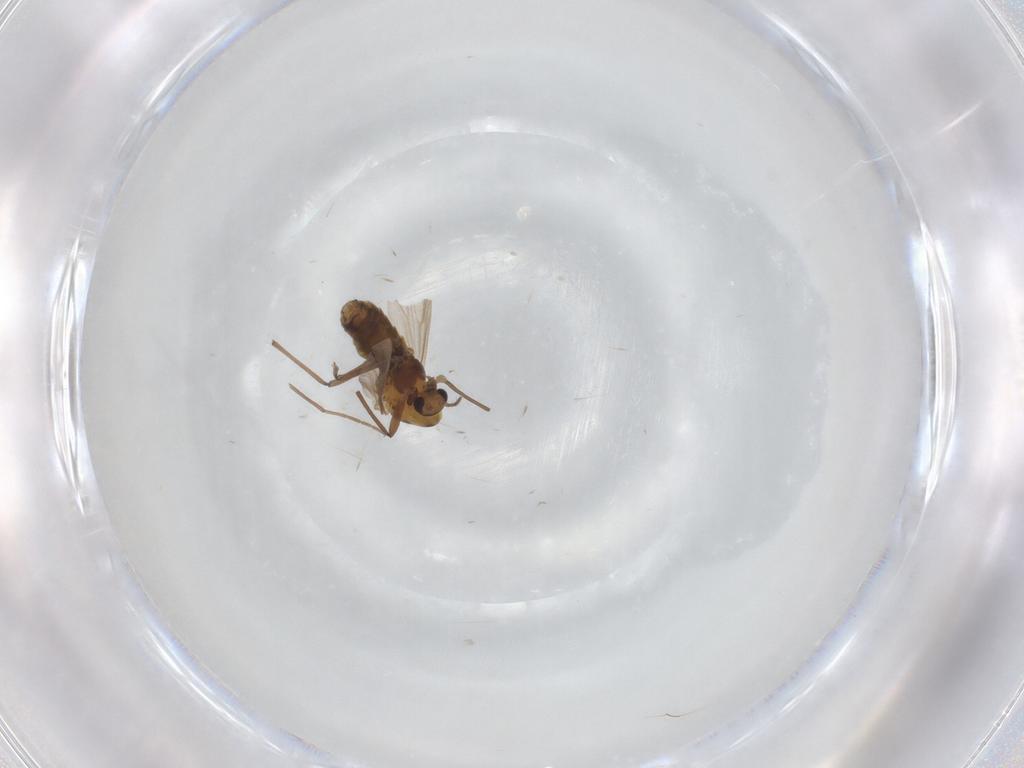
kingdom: Animalia
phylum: Arthropoda
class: Insecta
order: Diptera
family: Chironomidae
